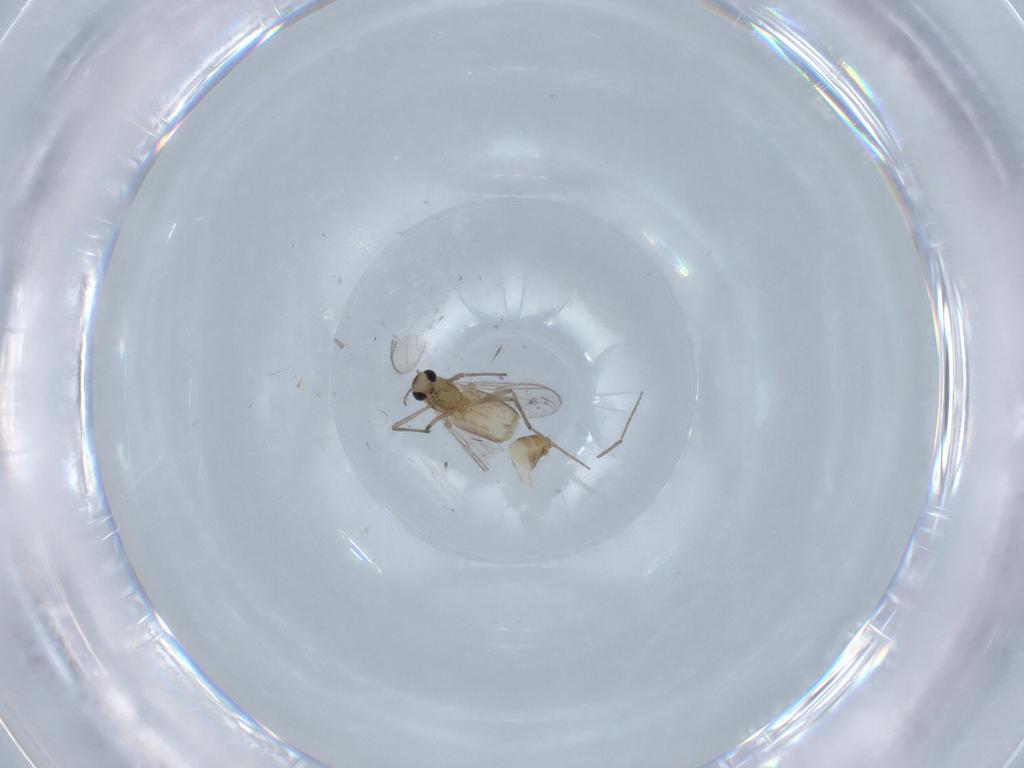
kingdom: Animalia
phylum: Arthropoda
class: Insecta
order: Diptera
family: Chironomidae
